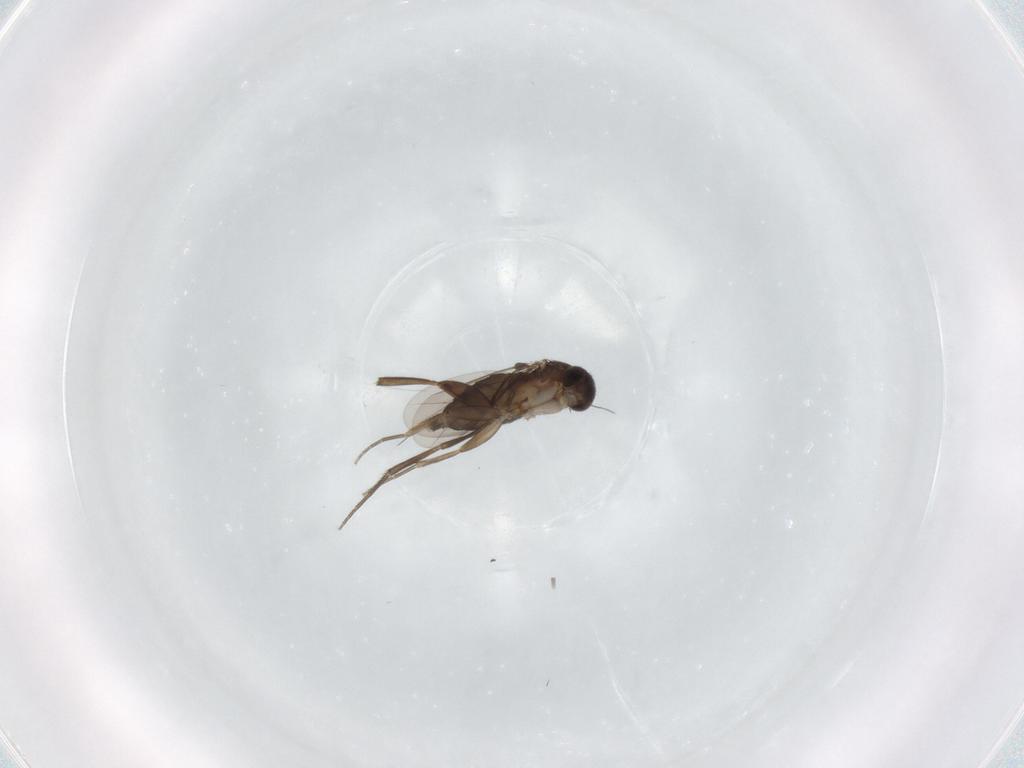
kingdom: Animalia
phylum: Arthropoda
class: Insecta
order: Diptera
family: Phoridae
